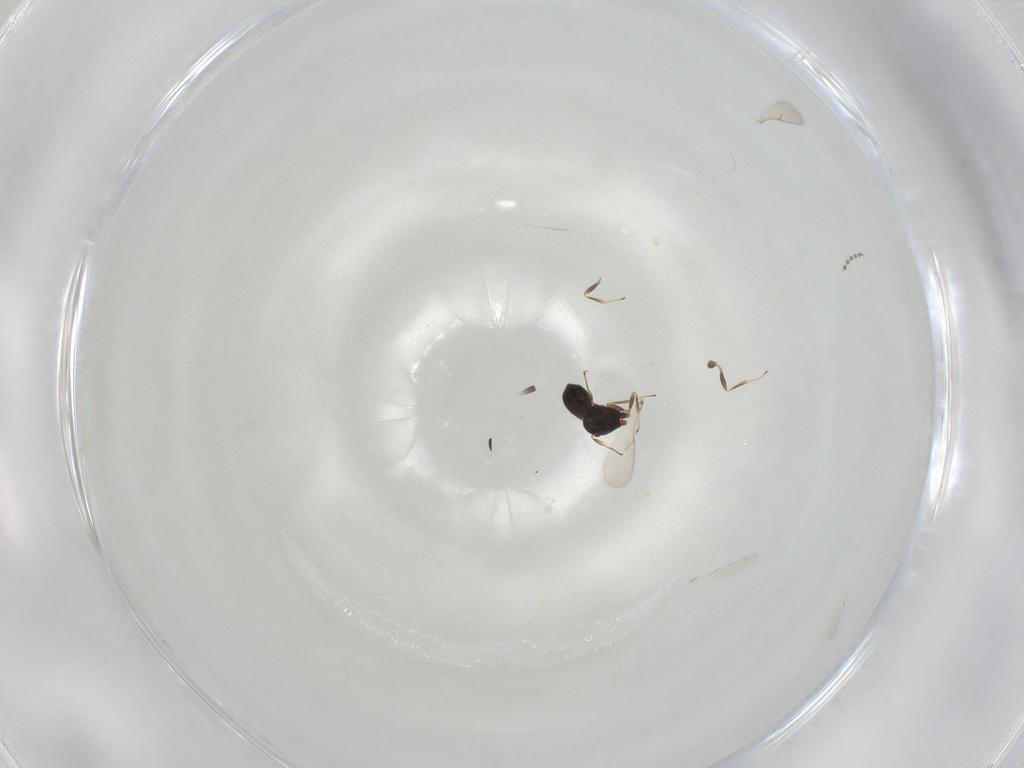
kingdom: Animalia
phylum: Arthropoda
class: Insecta
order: Hymenoptera
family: Scelionidae
